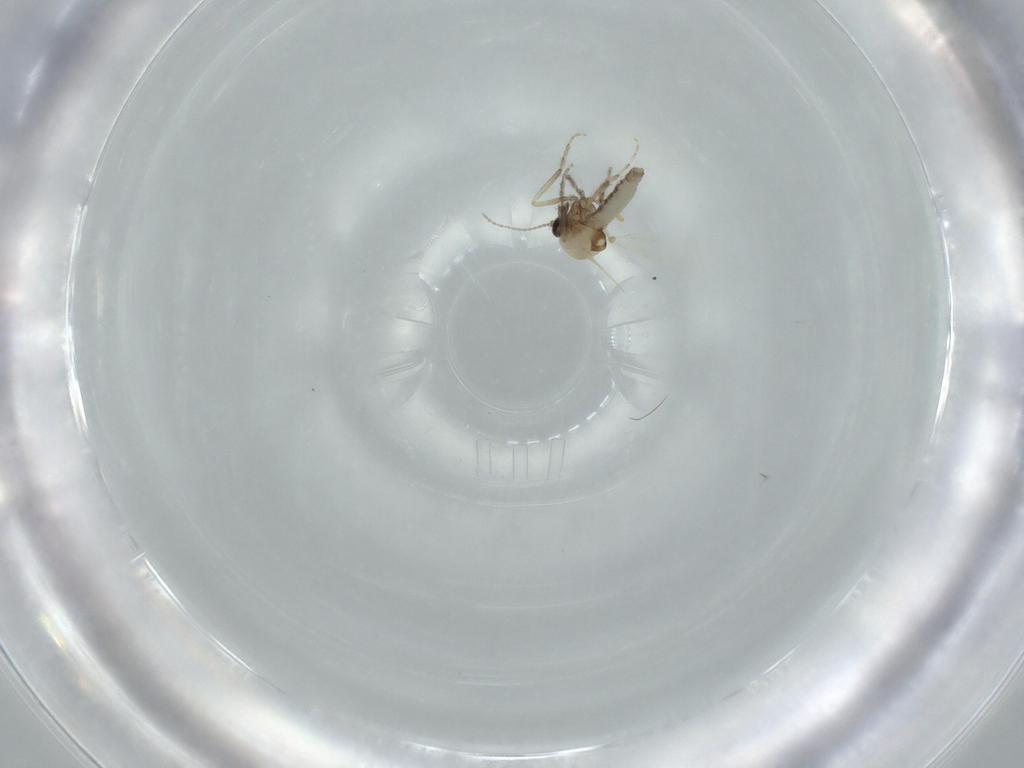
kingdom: Animalia
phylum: Arthropoda
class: Insecta
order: Diptera
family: Ceratopogonidae
